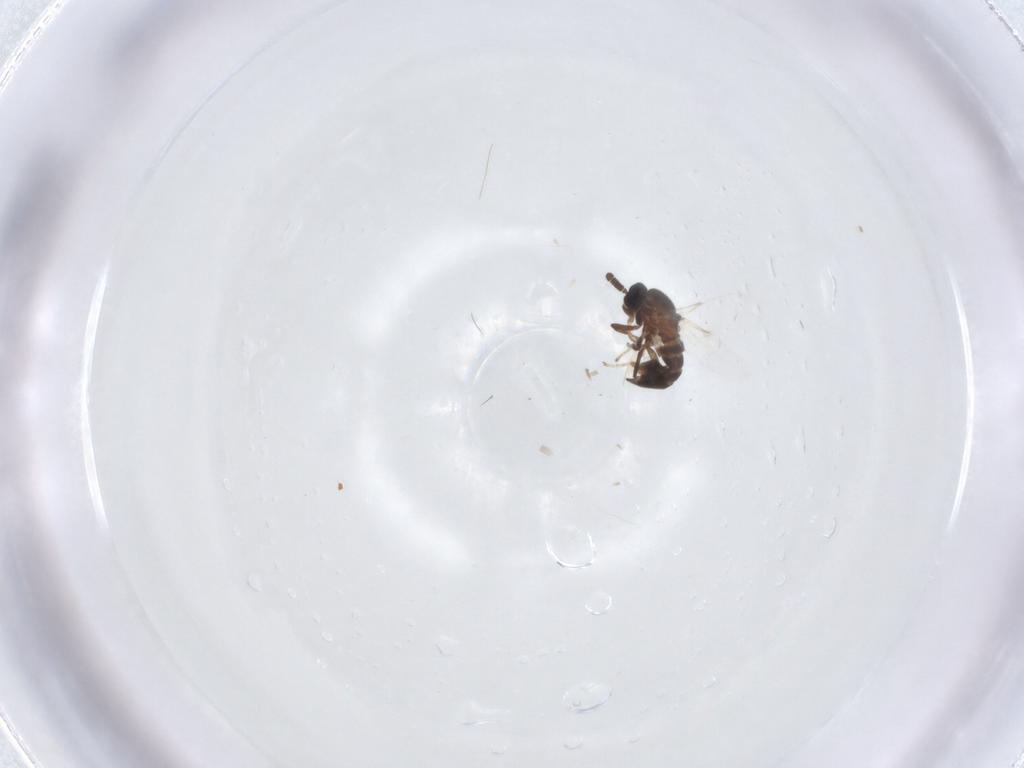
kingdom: Animalia
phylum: Arthropoda
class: Insecta
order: Diptera
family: Scatopsidae
